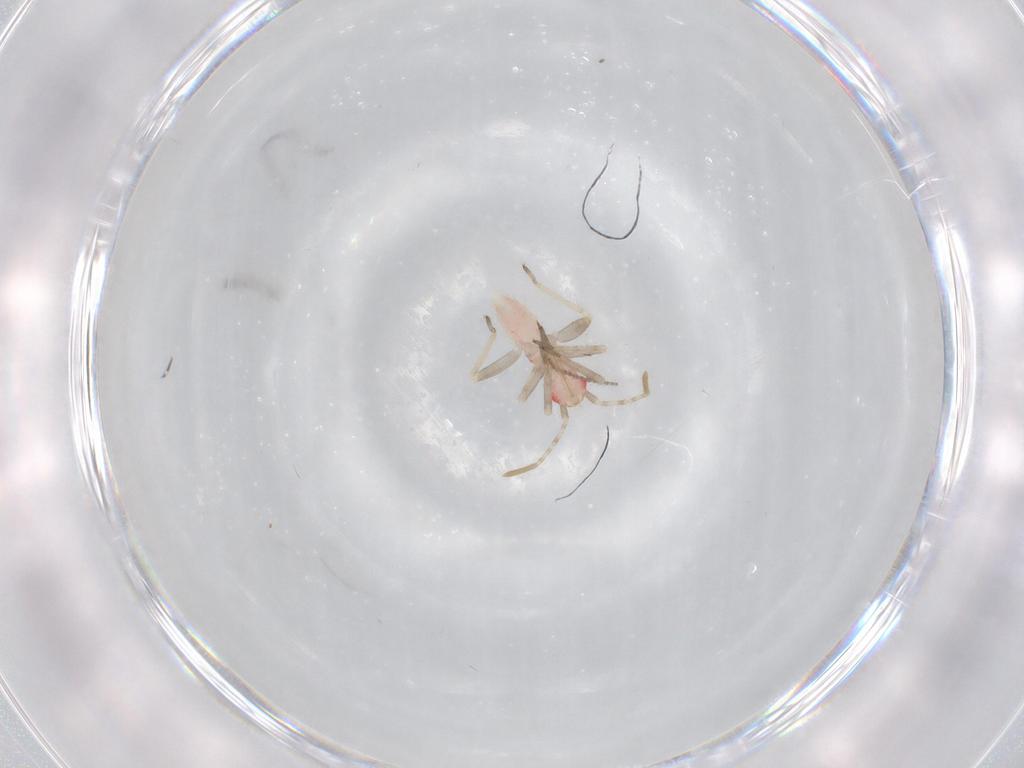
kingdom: Animalia
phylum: Arthropoda
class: Insecta
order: Hemiptera
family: Miridae
